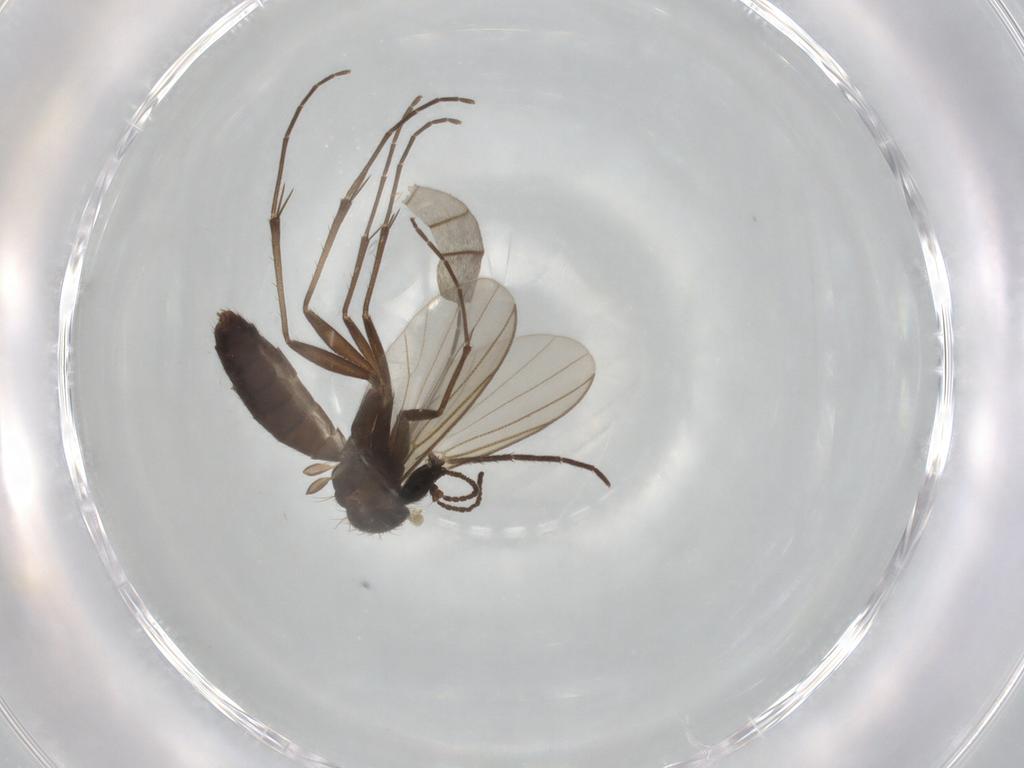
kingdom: Animalia
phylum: Arthropoda
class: Insecta
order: Diptera
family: Mycetophilidae
